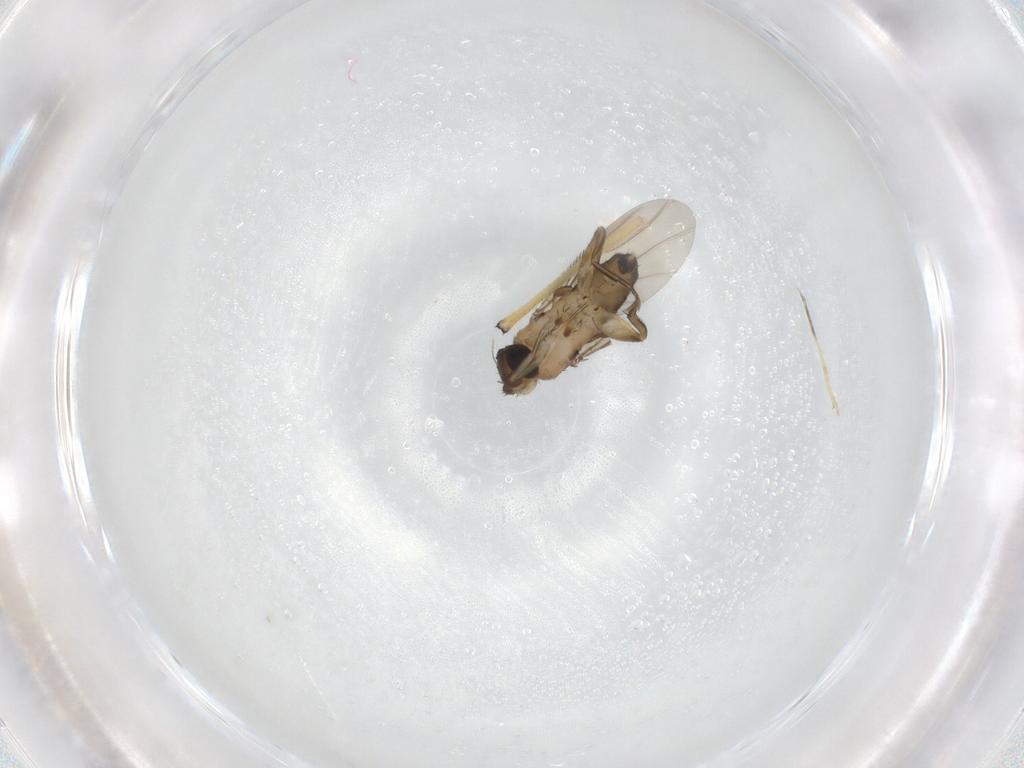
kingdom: Animalia
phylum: Arthropoda
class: Insecta
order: Diptera
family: Phoridae
